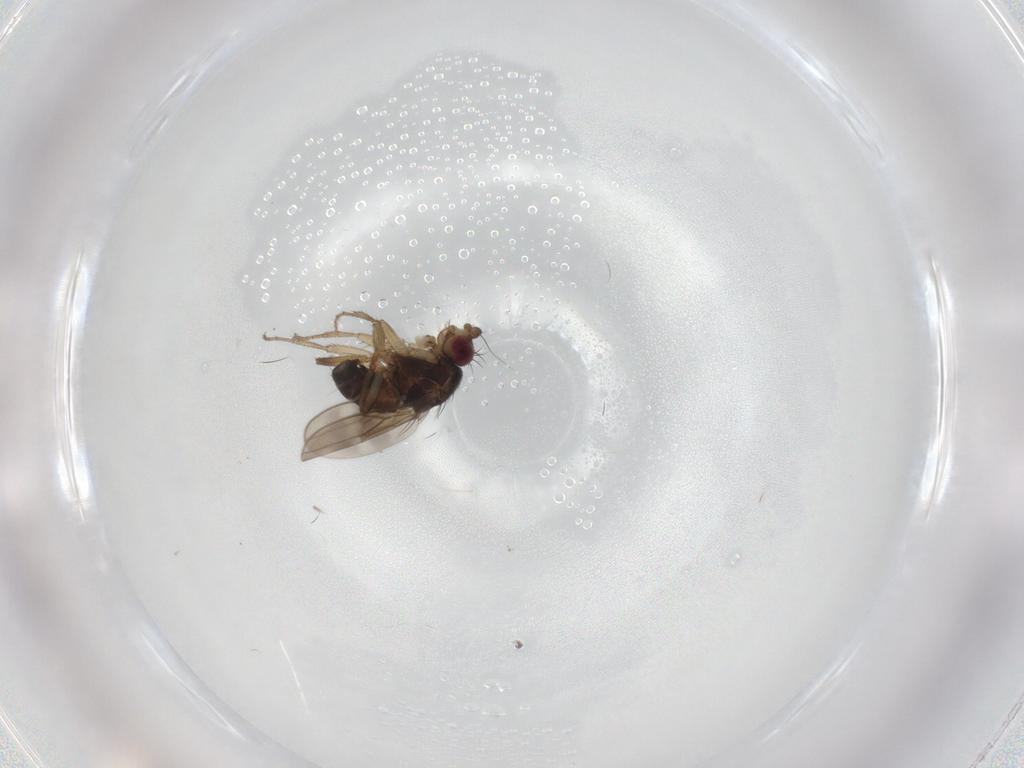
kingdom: Animalia
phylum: Arthropoda
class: Insecta
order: Diptera
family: Sphaeroceridae
